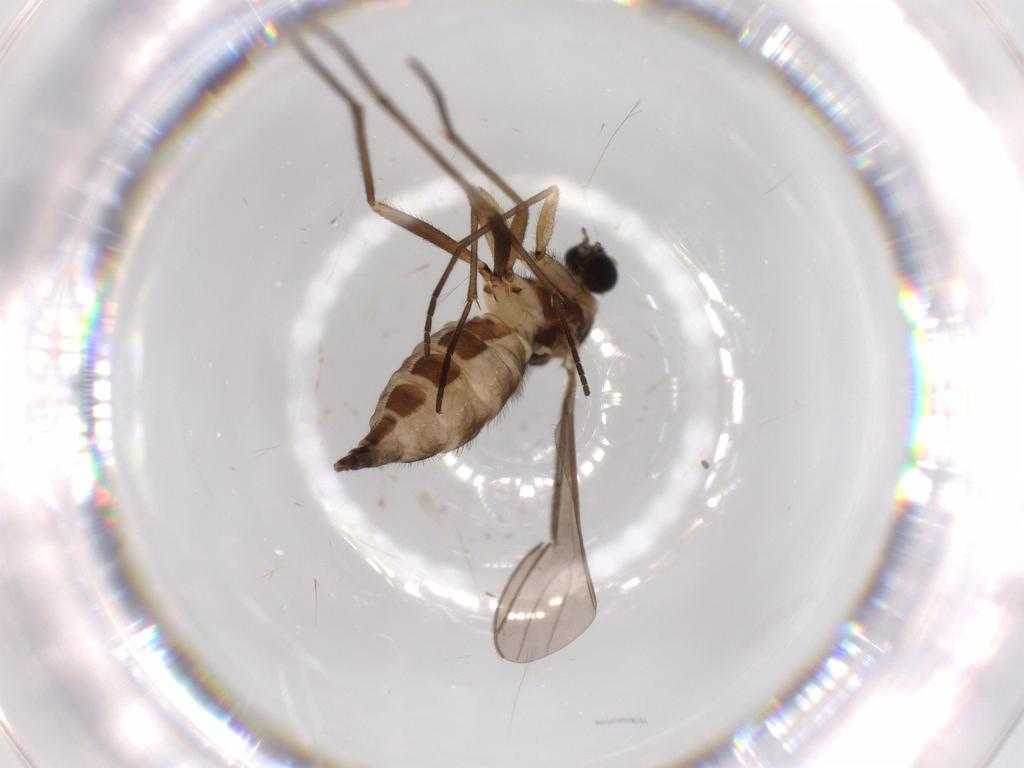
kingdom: Animalia
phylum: Arthropoda
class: Insecta
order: Diptera
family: Sciaridae
